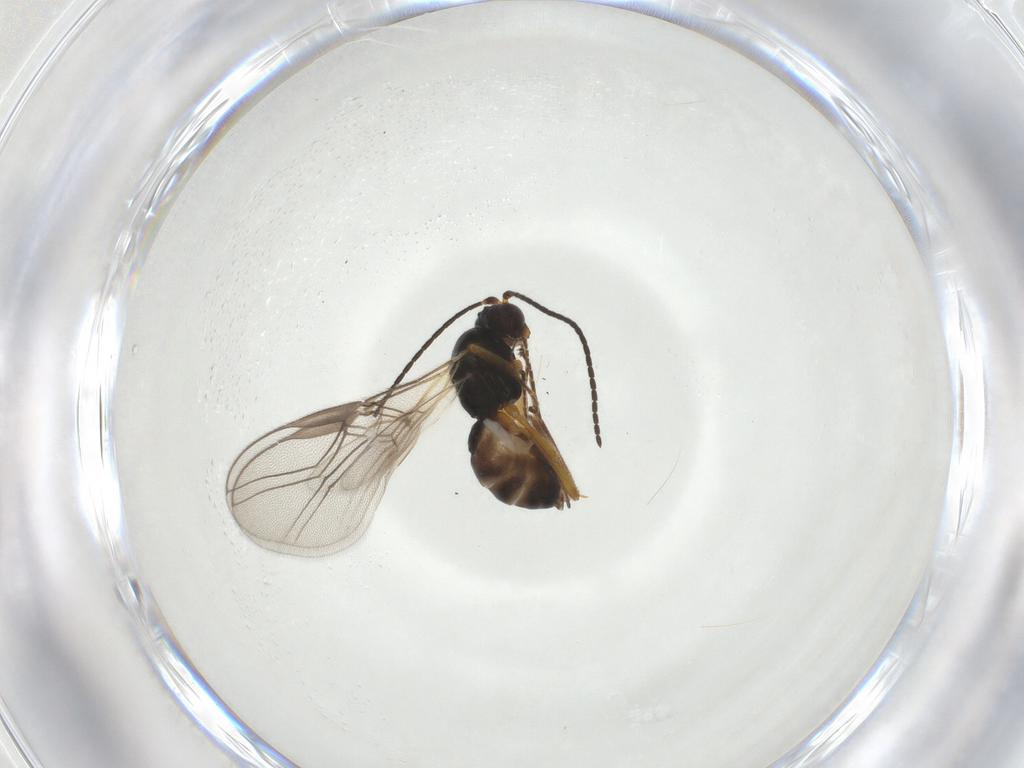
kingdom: Animalia
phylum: Arthropoda
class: Insecta
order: Hymenoptera
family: Braconidae
